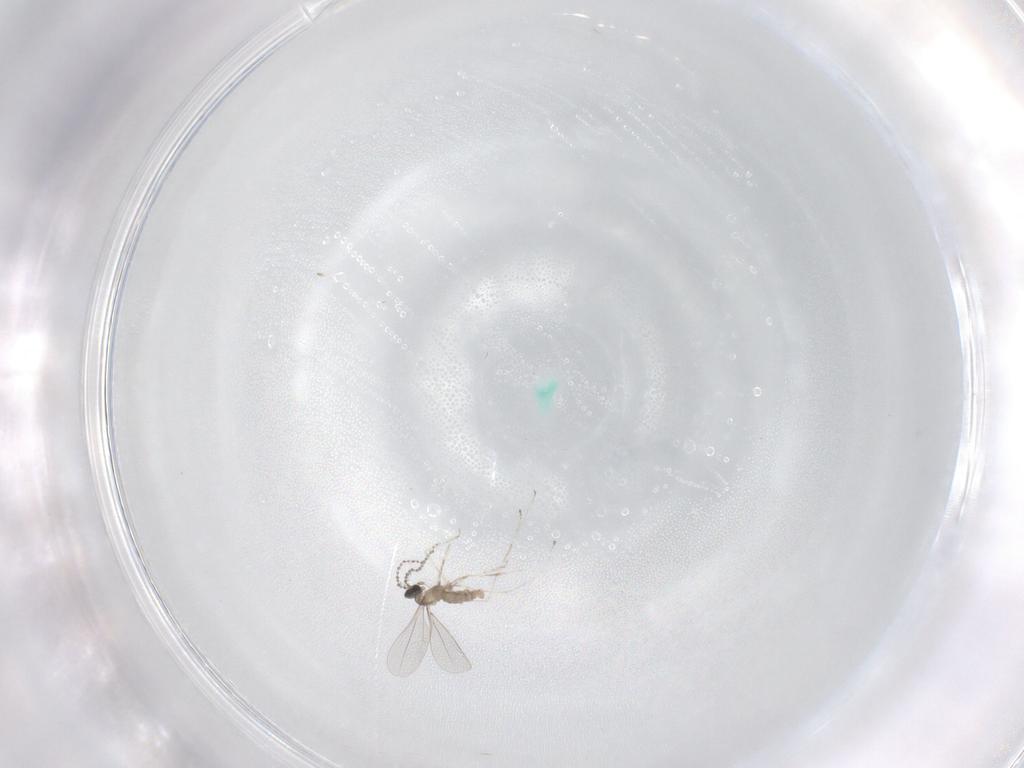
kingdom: Animalia
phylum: Arthropoda
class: Insecta
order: Diptera
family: Cecidomyiidae
